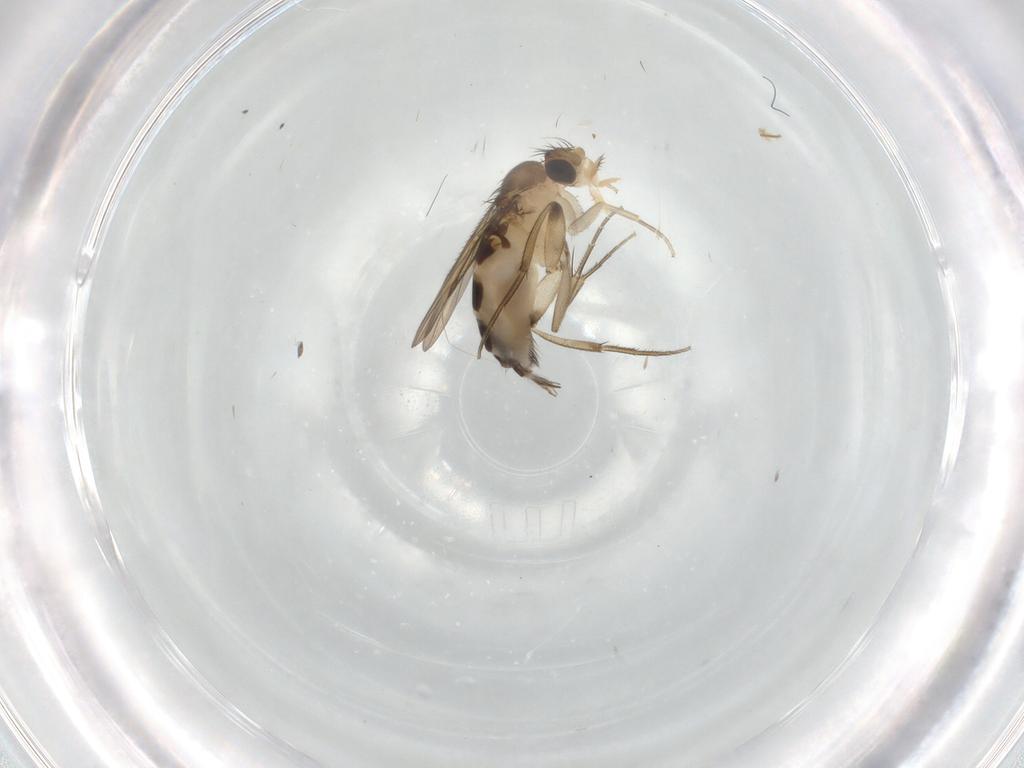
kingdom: Animalia
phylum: Arthropoda
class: Insecta
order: Diptera
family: Phoridae
